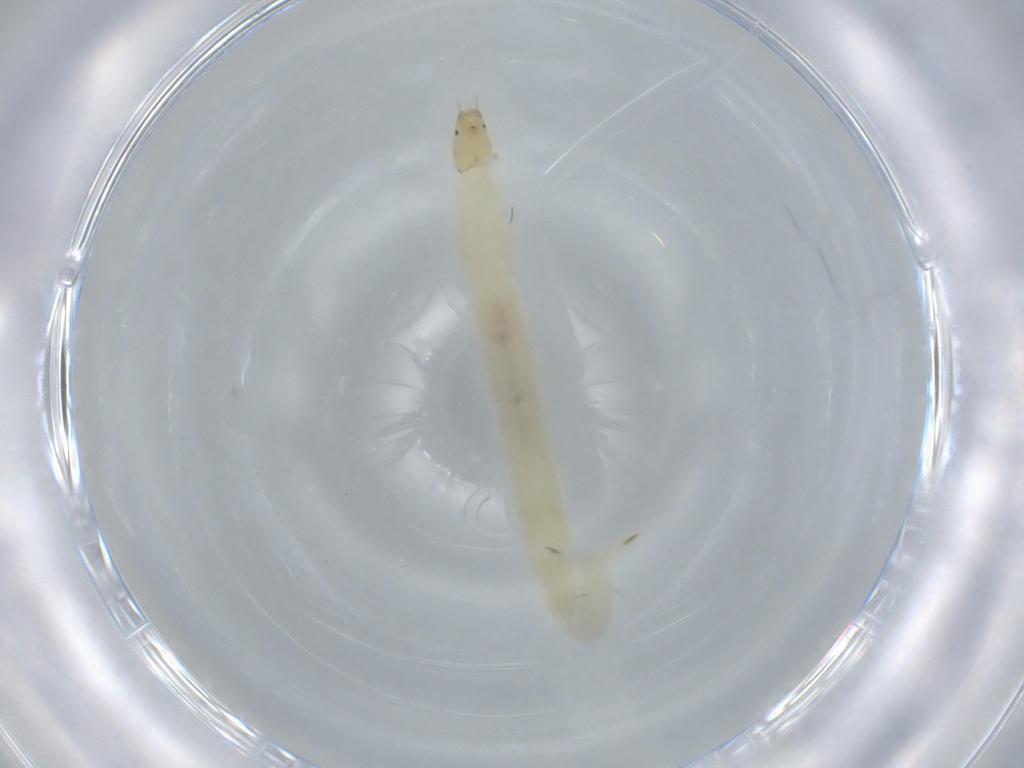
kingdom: Animalia
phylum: Arthropoda
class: Insecta
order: Diptera
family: Chironomidae
